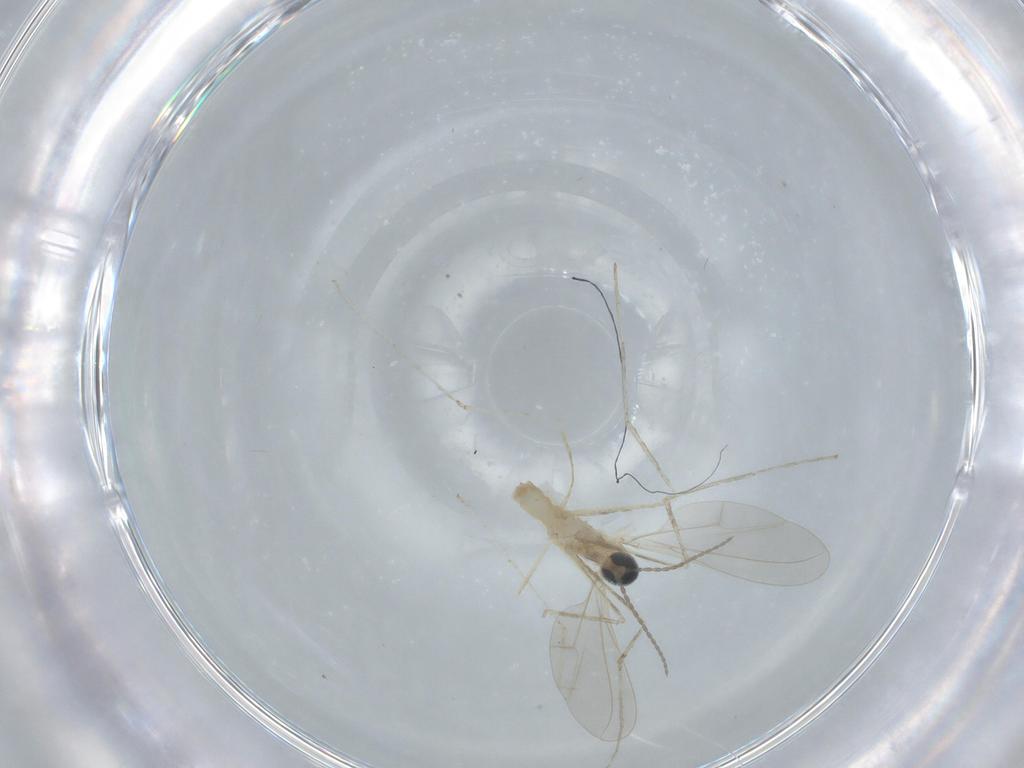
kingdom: Animalia
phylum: Arthropoda
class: Insecta
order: Diptera
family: Cecidomyiidae
